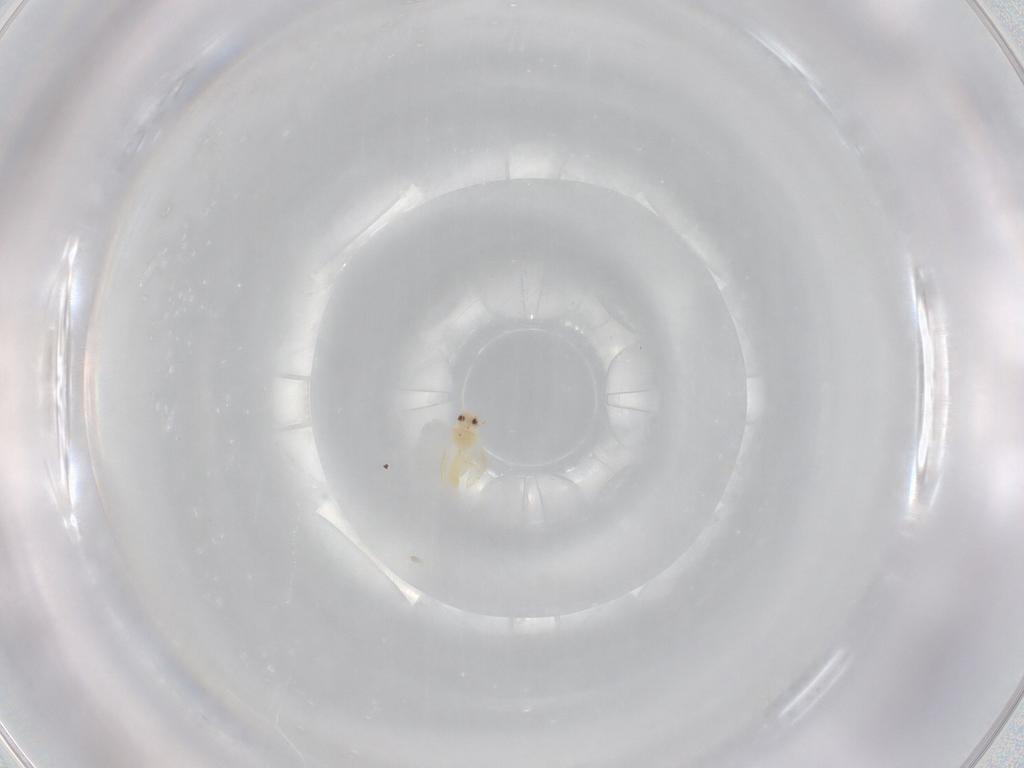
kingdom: Animalia
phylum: Arthropoda
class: Insecta
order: Hemiptera
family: Aleyrodidae
